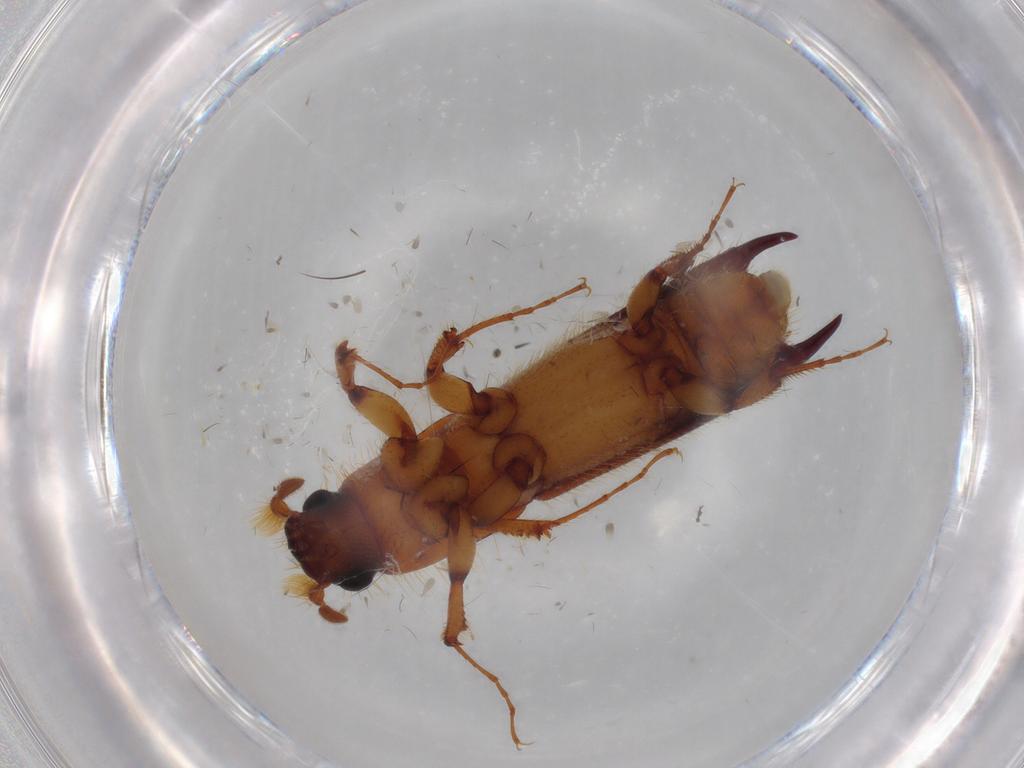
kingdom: Animalia
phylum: Arthropoda
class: Insecta
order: Coleoptera
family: Curculionidae
